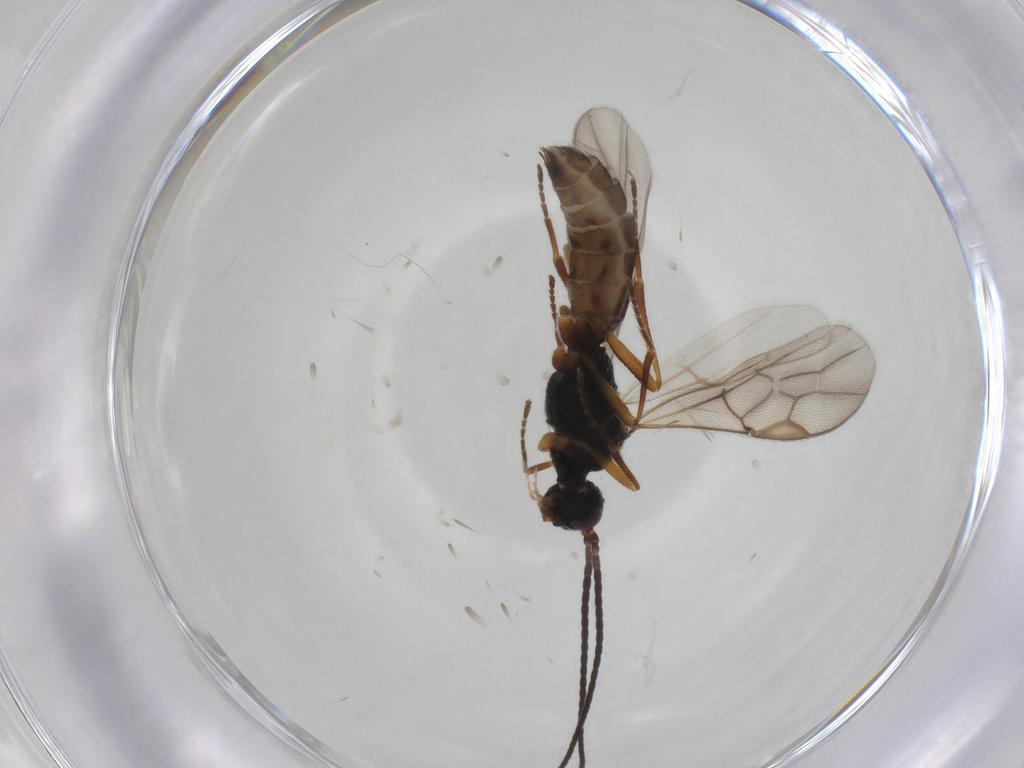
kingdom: Animalia
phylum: Arthropoda
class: Insecta
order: Hymenoptera
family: Braconidae
